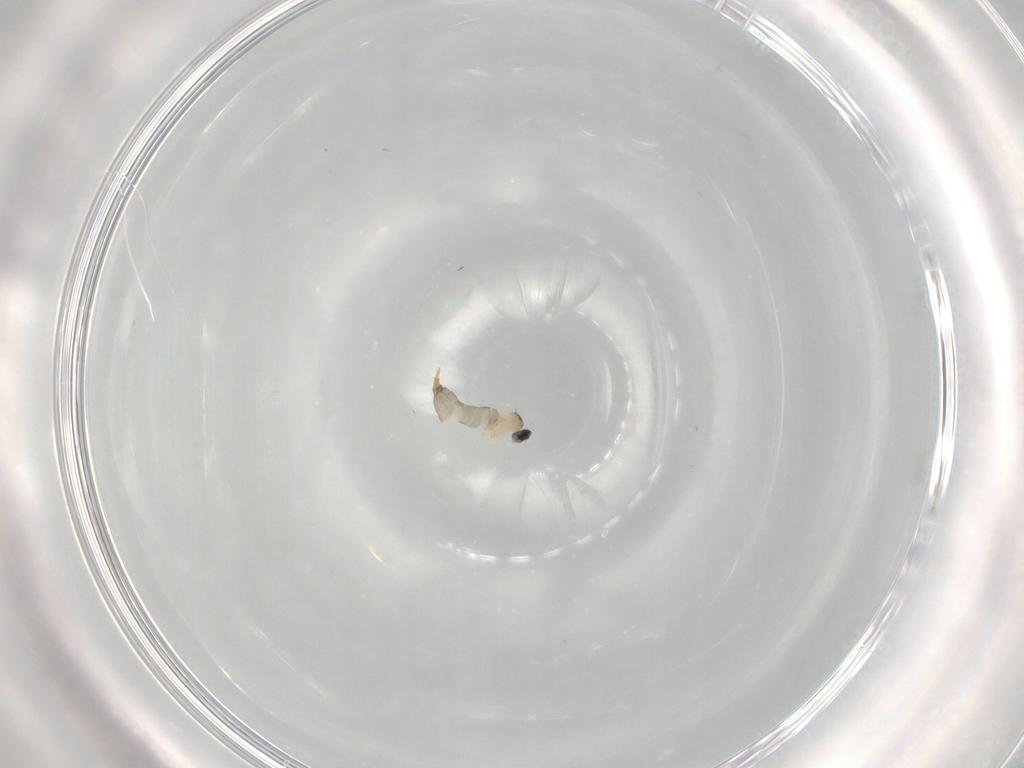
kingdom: Animalia
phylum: Arthropoda
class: Insecta
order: Diptera
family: Cecidomyiidae
